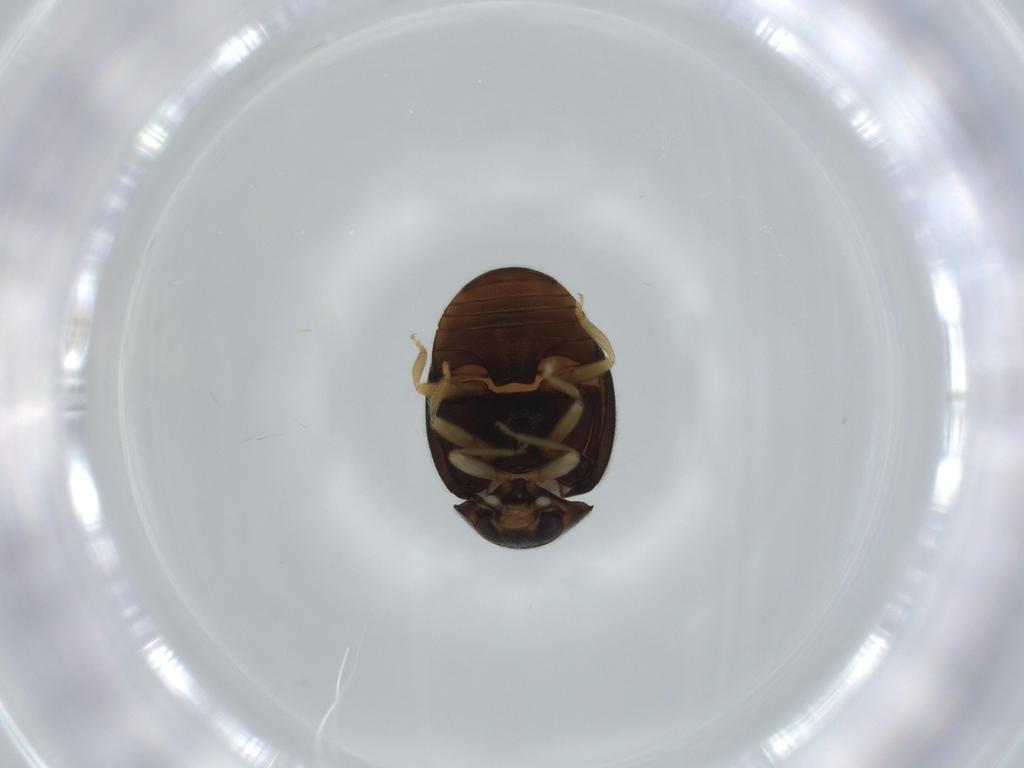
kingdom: Animalia
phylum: Arthropoda
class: Insecta
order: Coleoptera
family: Coccinellidae
